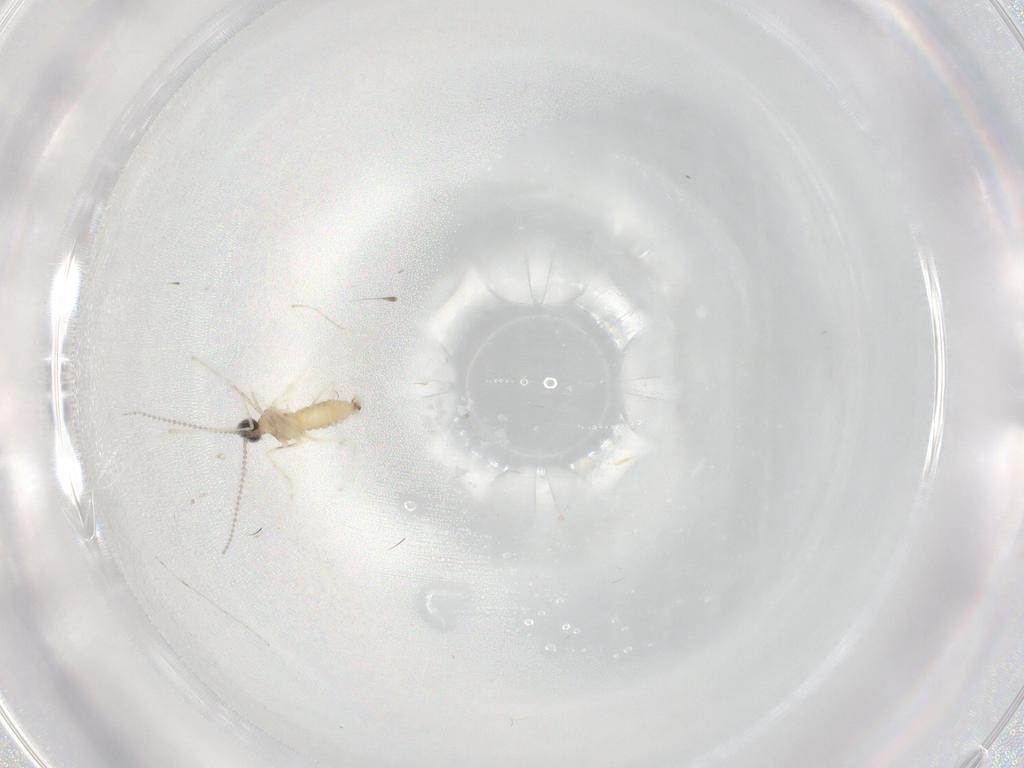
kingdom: Animalia
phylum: Arthropoda
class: Insecta
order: Diptera
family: Cecidomyiidae
